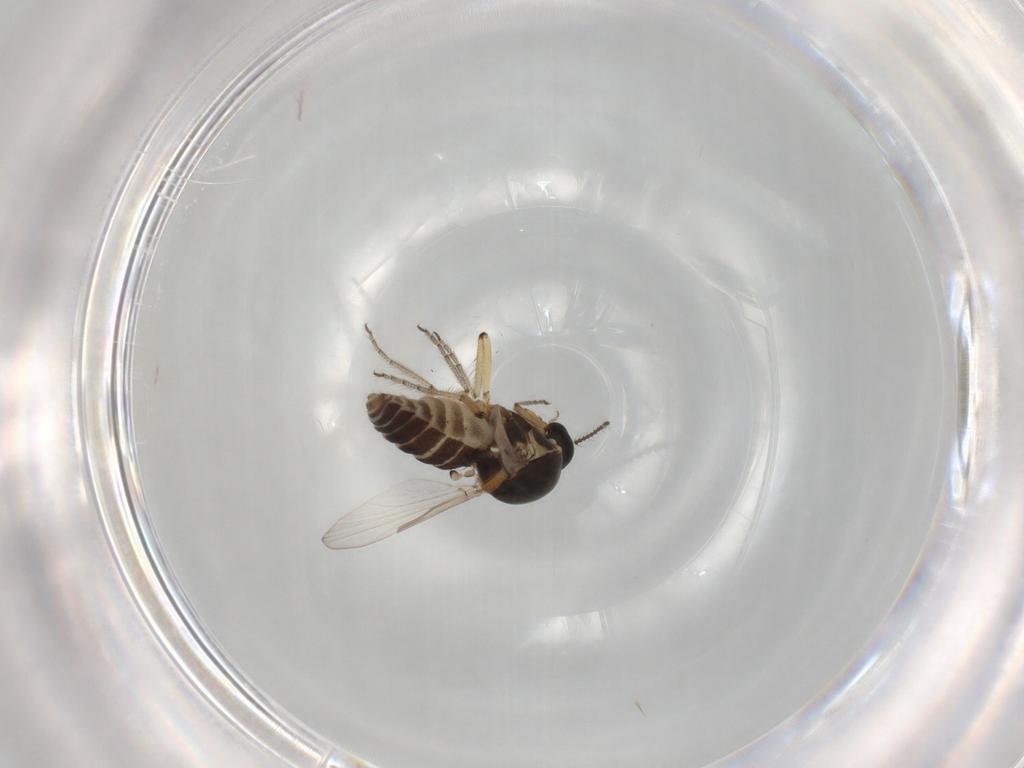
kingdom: Animalia
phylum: Arthropoda
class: Insecta
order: Diptera
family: Ceratopogonidae
